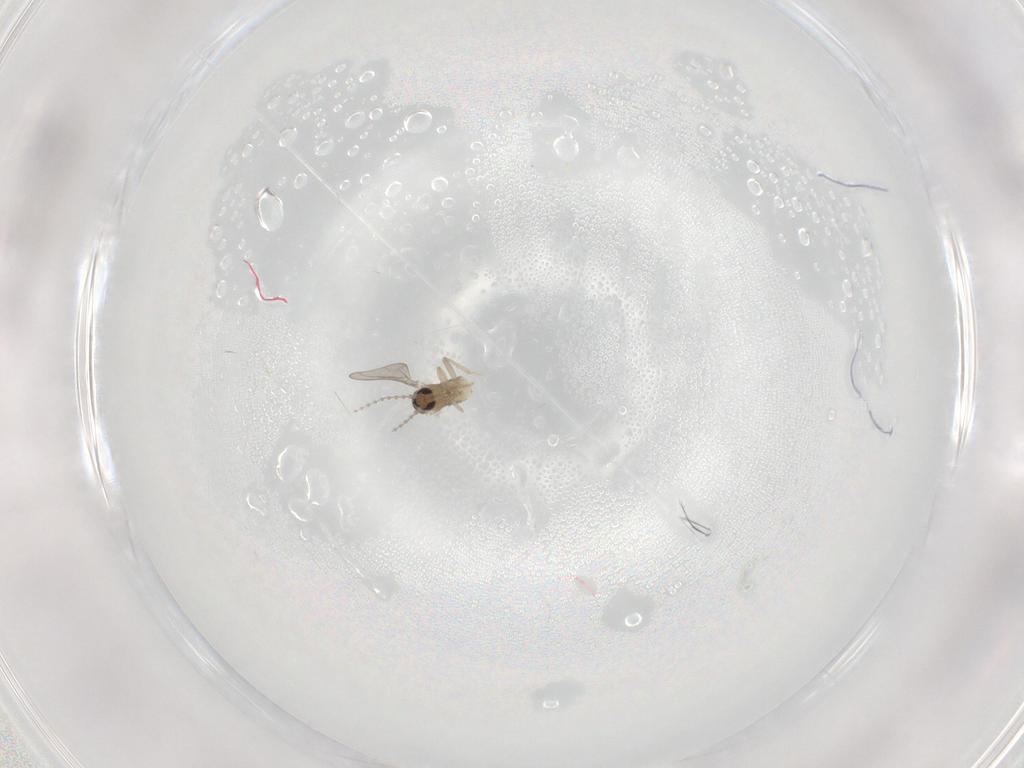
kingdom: Animalia
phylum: Arthropoda
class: Insecta
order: Diptera
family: Cecidomyiidae
